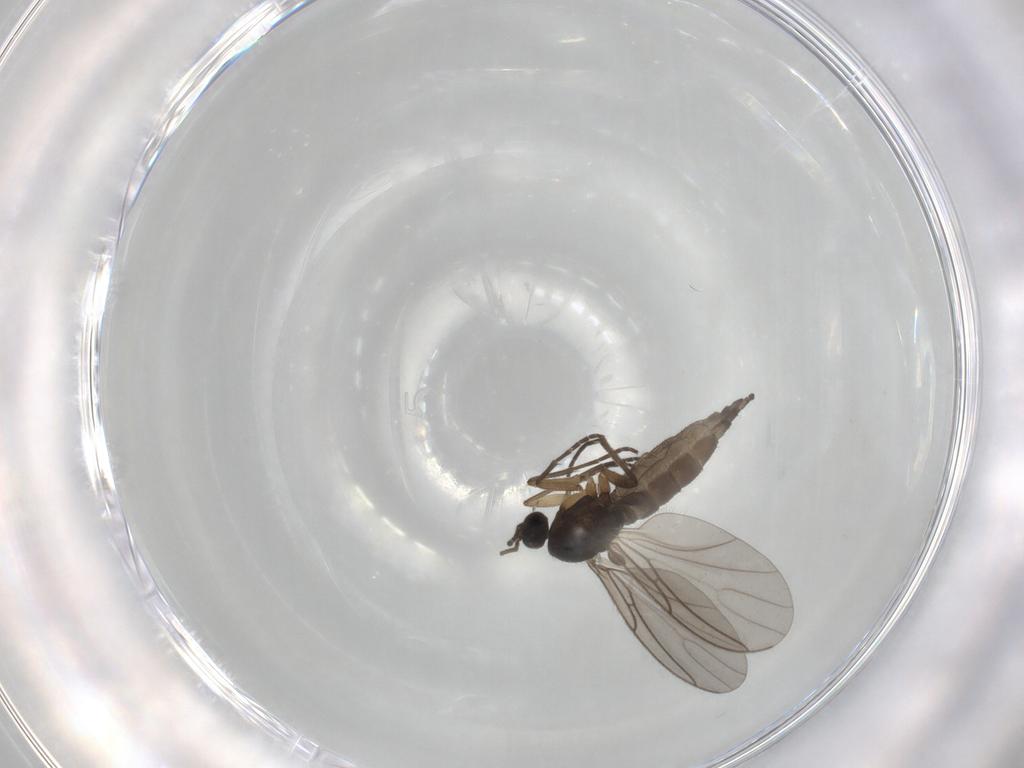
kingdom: Animalia
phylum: Arthropoda
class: Insecta
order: Diptera
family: Sciaridae
